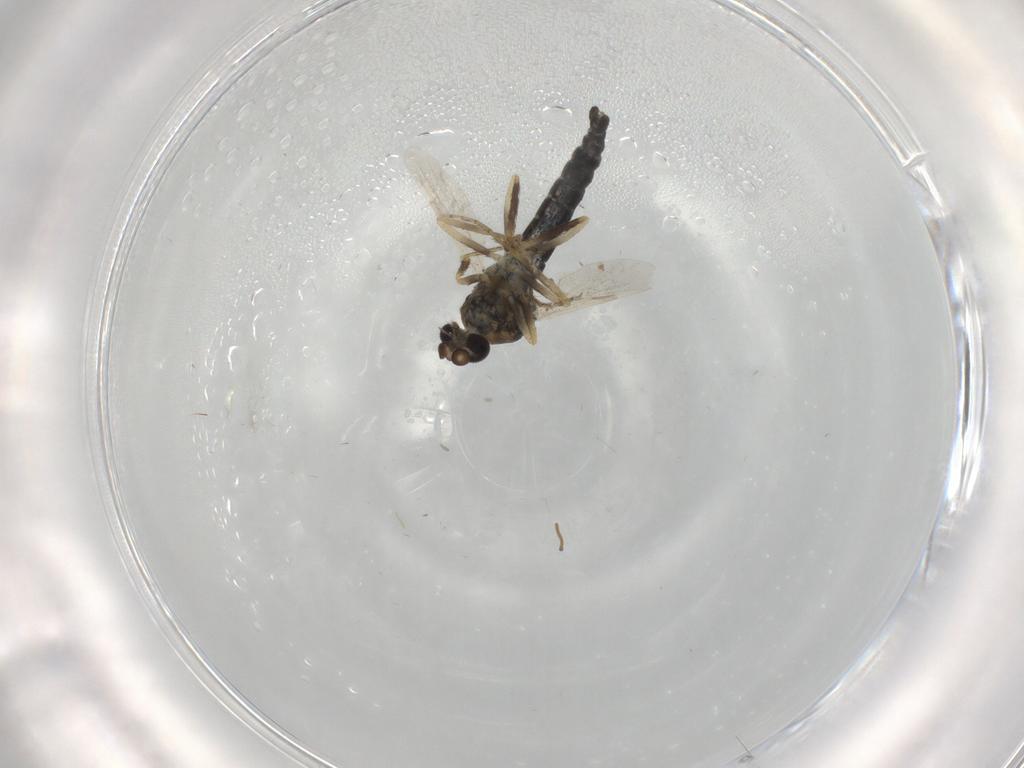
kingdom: Animalia
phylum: Arthropoda
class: Insecta
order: Diptera
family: Ceratopogonidae
